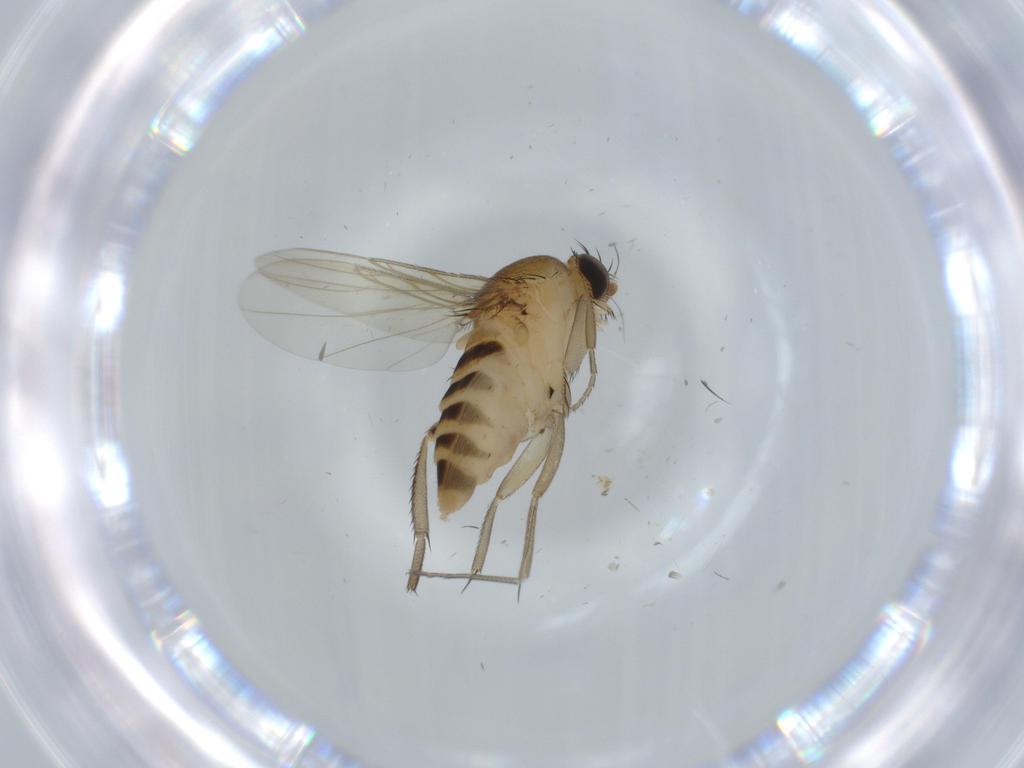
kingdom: Animalia
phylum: Arthropoda
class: Insecta
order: Diptera
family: Phoridae
